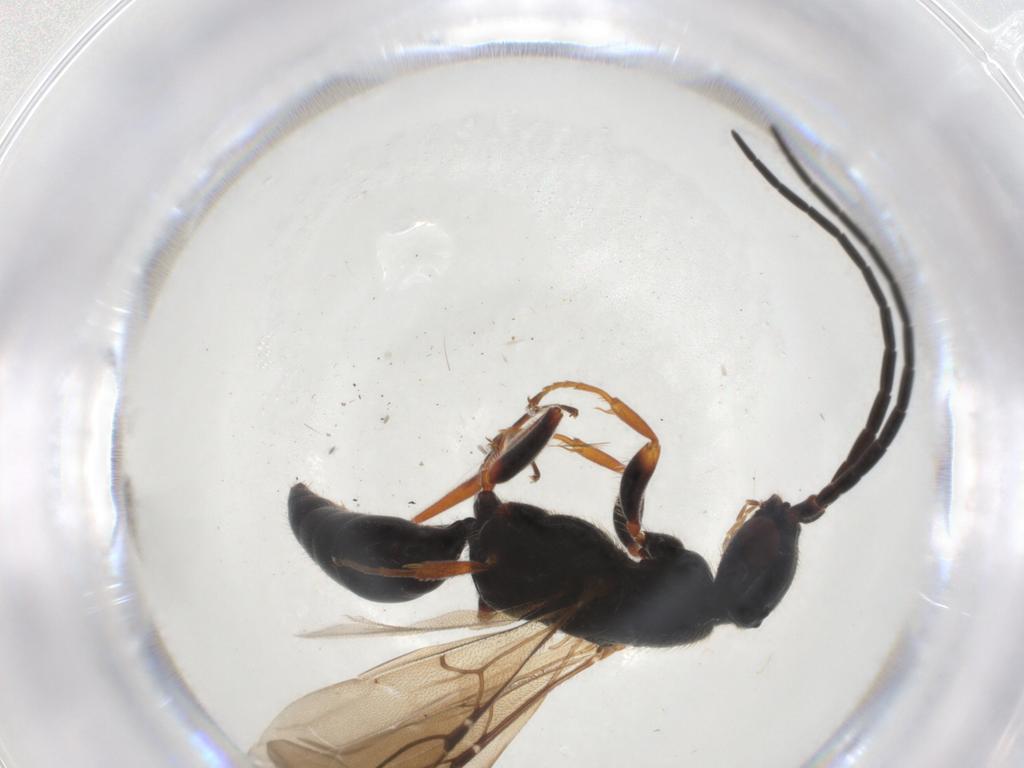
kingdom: Animalia
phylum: Arthropoda
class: Insecta
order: Hymenoptera
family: Bethylidae
